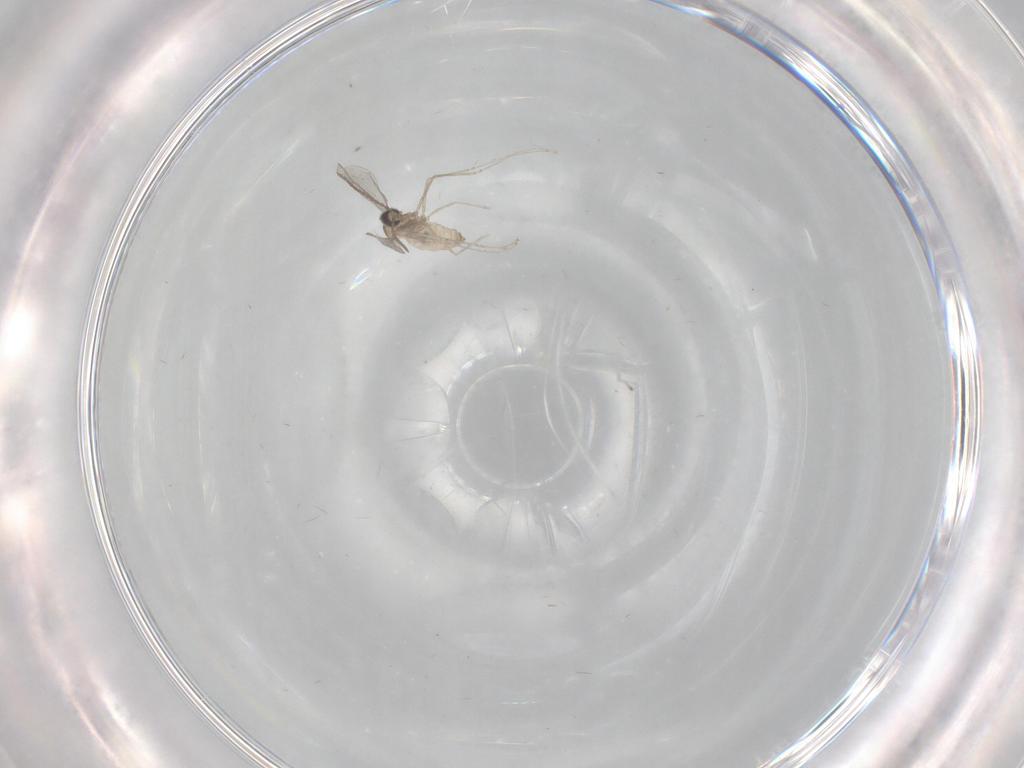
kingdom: Animalia
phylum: Arthropoda
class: Insecta
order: Diptera
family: Psychodidae
